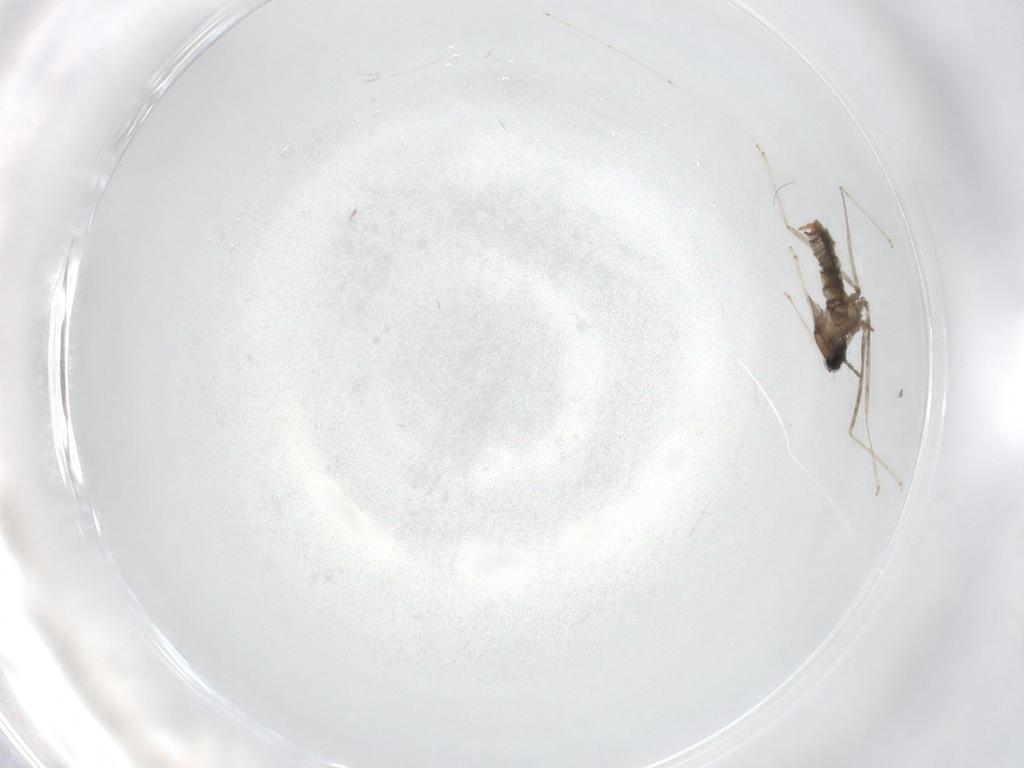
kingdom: Animalia
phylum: Arthropoda
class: Insecta
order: Diptera
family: Cecidomyiidae
